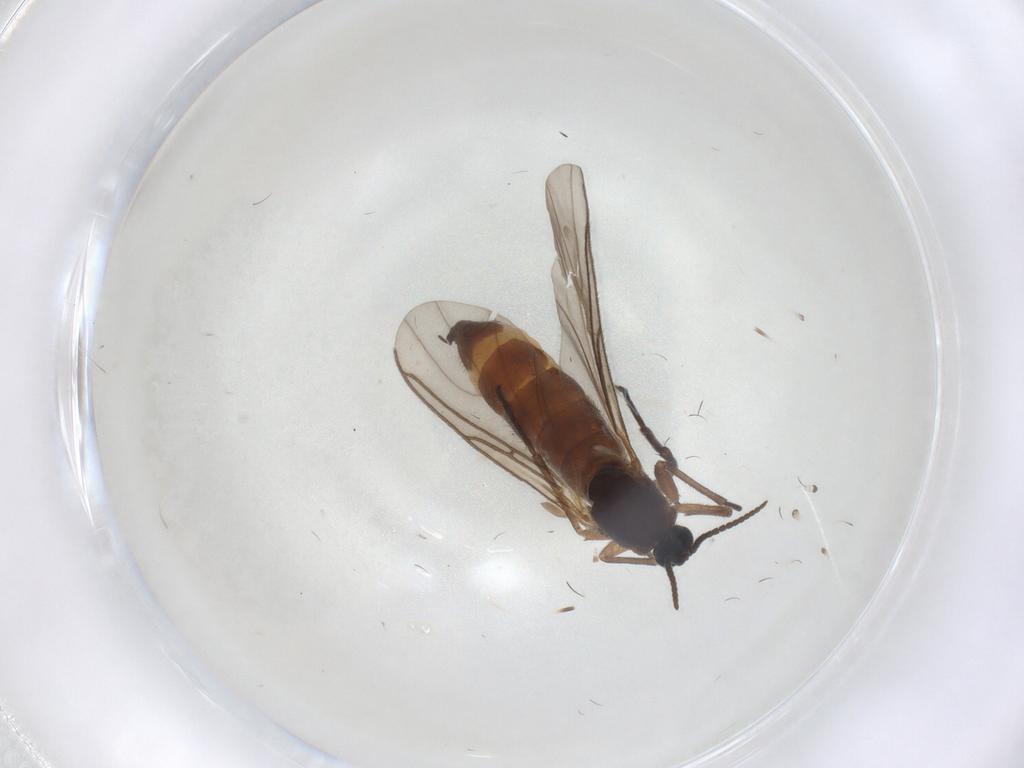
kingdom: Animalia
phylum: Arthropoda
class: Insecta
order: Diptera
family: Sciaridae
